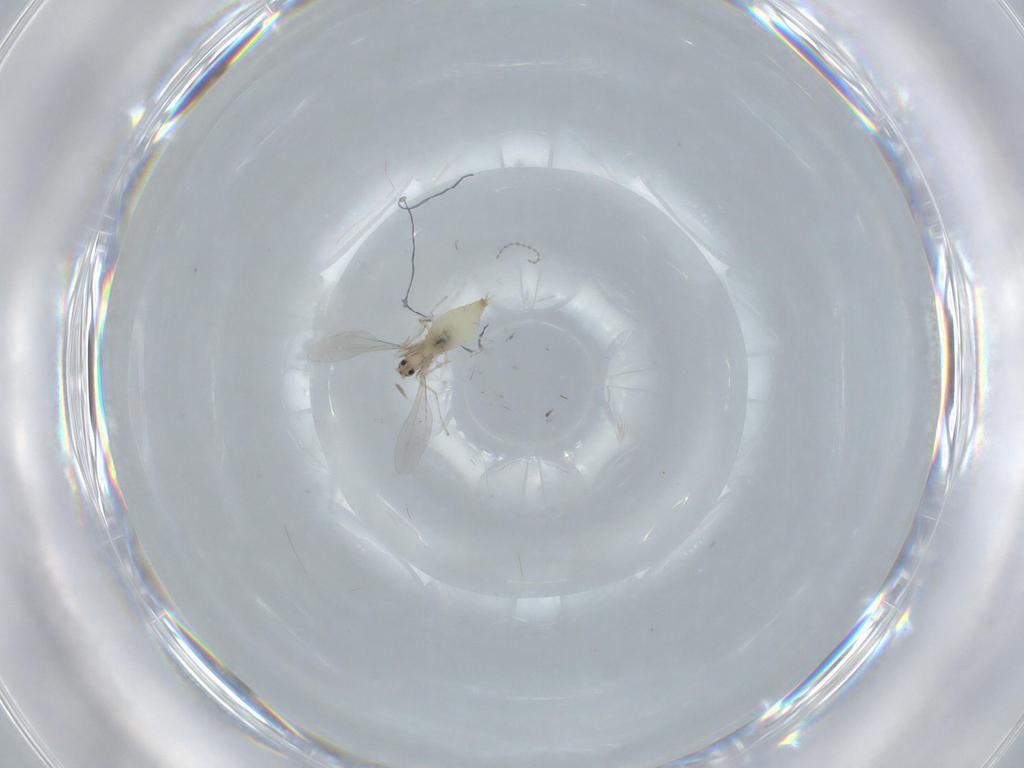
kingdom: Animalia
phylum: Arthropoda
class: Insecta
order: Diptera
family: Cecidomyiidae
